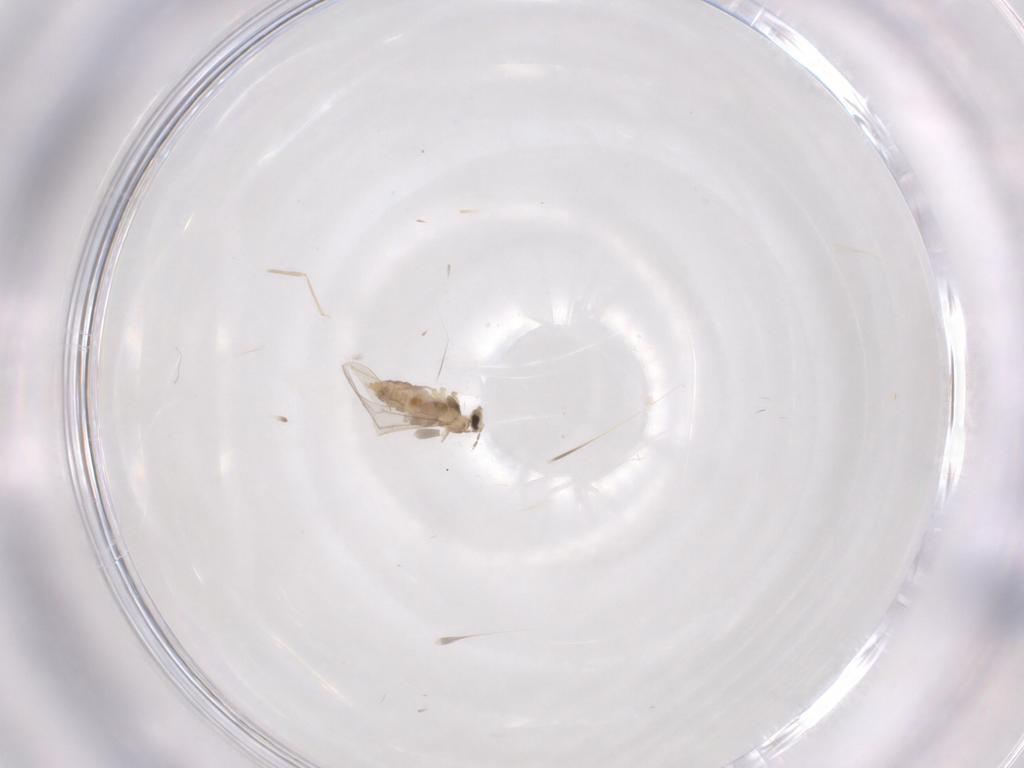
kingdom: Animalia
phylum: Arthropoda
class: Insecta
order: Diptera
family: Cecidomyiidae
